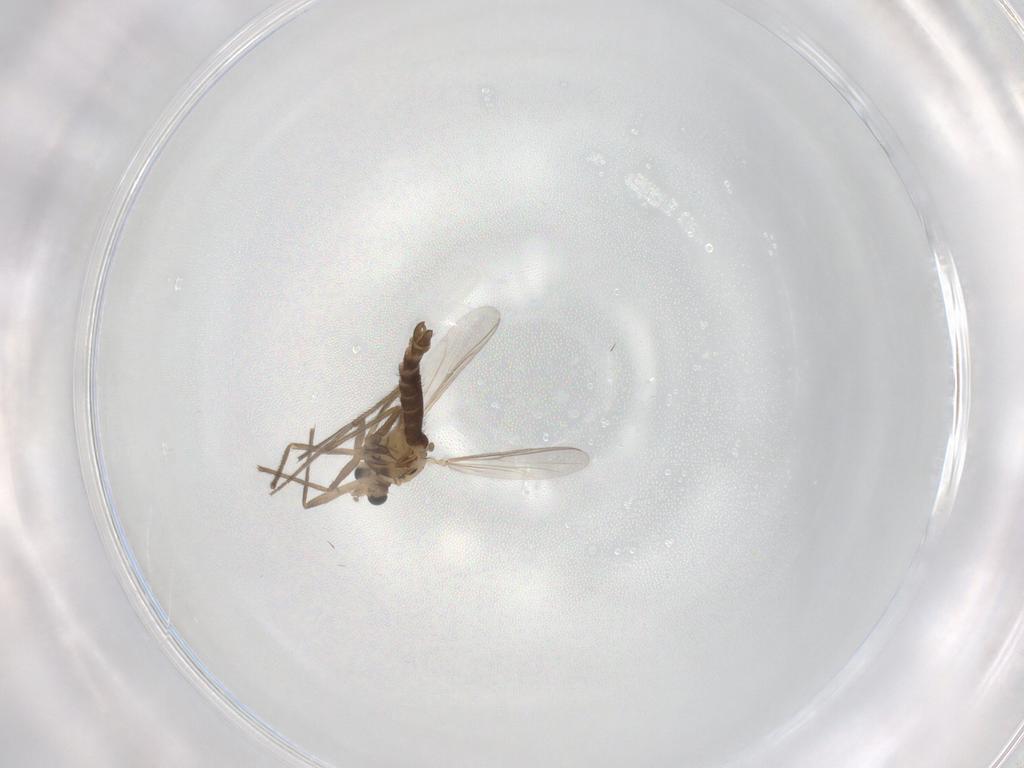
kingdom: Animalia
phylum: Arthropoda
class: Insecta
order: Diptera
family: Chironomidae
